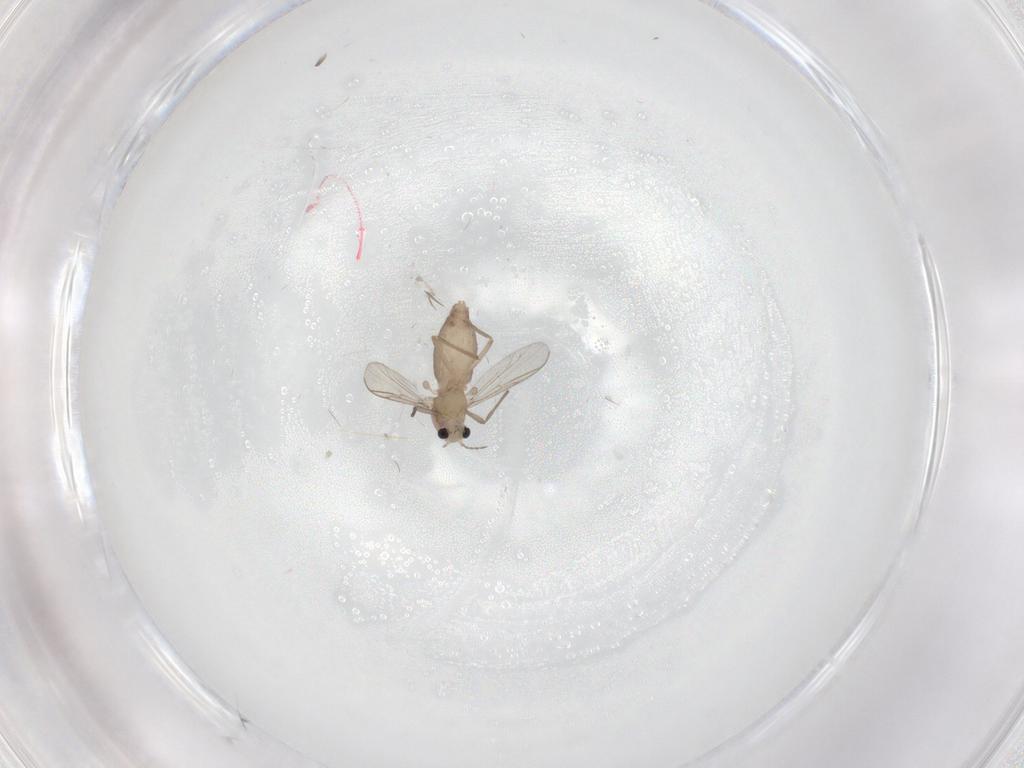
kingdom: Animalia
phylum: Arthropoda
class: Insecta
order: Diptera
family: Chironomidae
